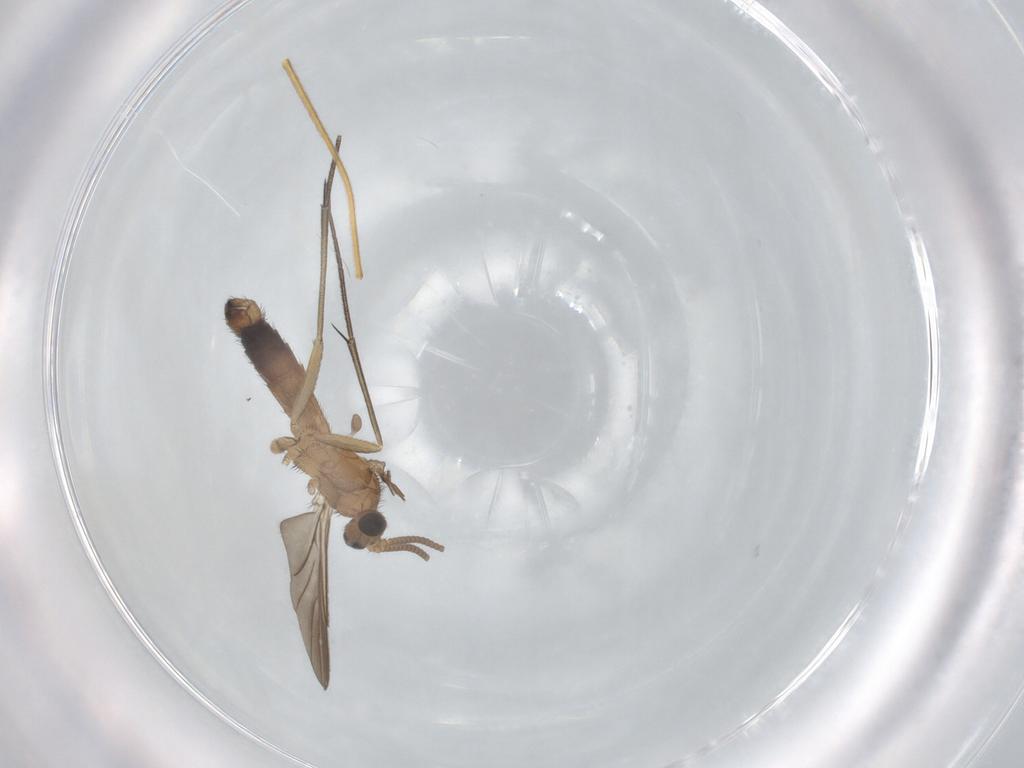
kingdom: Animalia
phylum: Arthropoda
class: Insecta
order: Diptera
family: Keroplatidae
